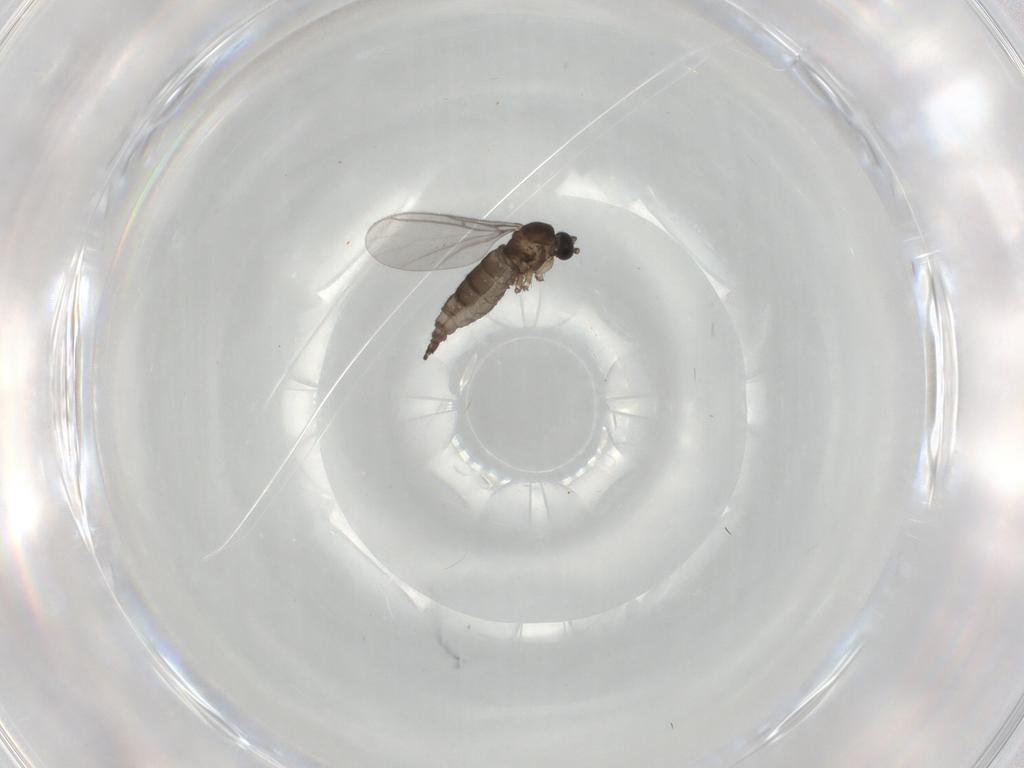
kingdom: Animalia
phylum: Arthropoda
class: Insecta
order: Diptera
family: Sciaridae
